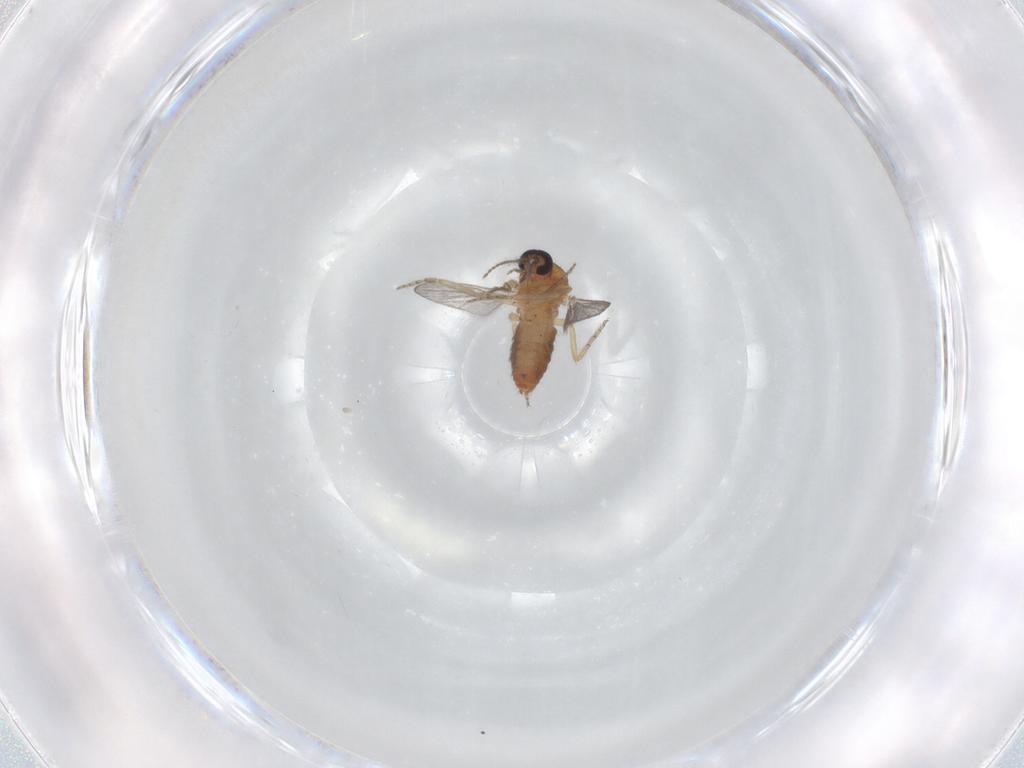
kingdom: Animalia
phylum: Arthropoda
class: Insecta
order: Diptera
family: Ceratopogonidae
